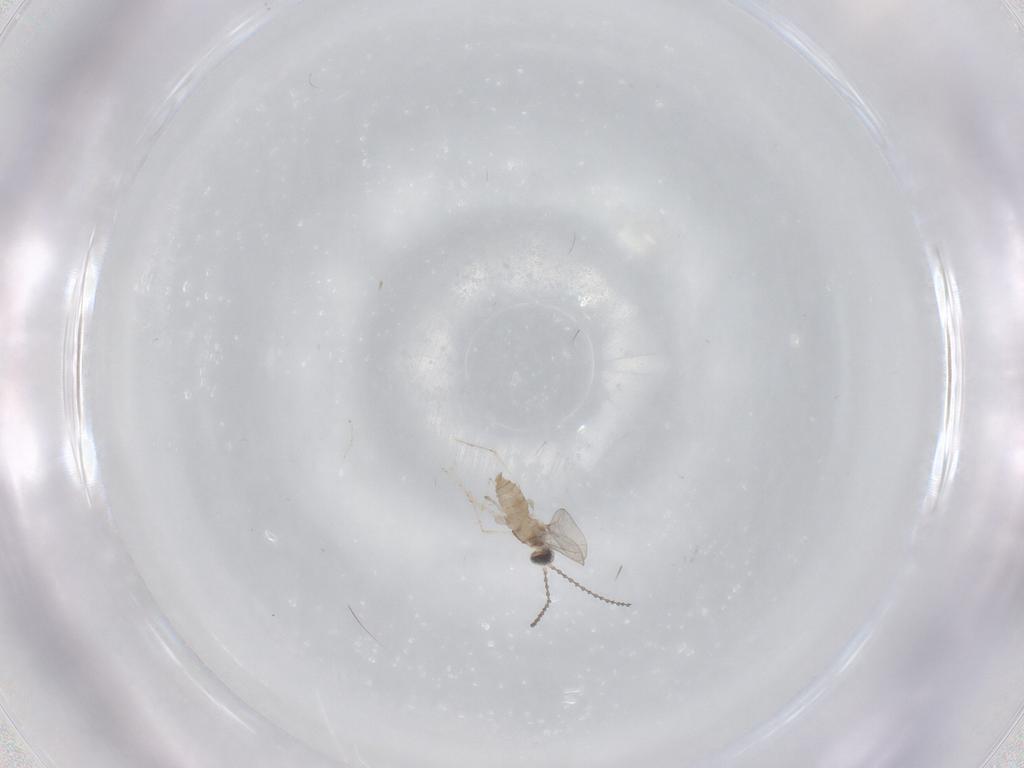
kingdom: Animalia
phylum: Arthropoda
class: Insecta
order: Diptera
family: Cecidomyiidae
